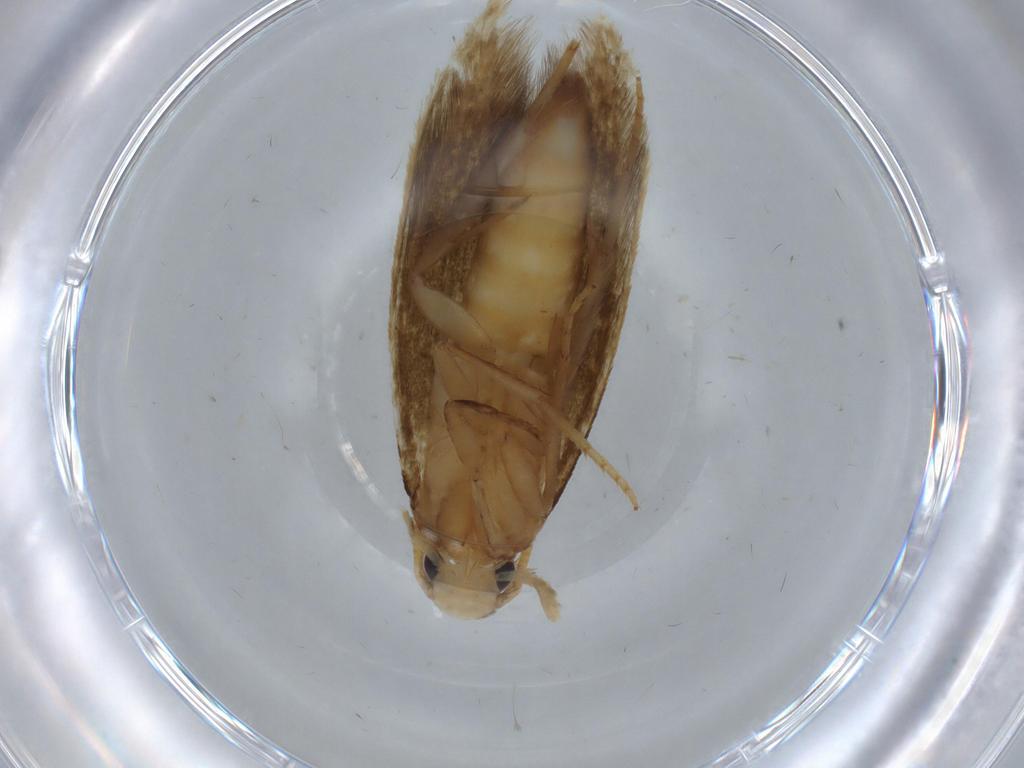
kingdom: Animalia
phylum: Arthropoda
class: Insecta
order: Lepidoptera
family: Tineidae
